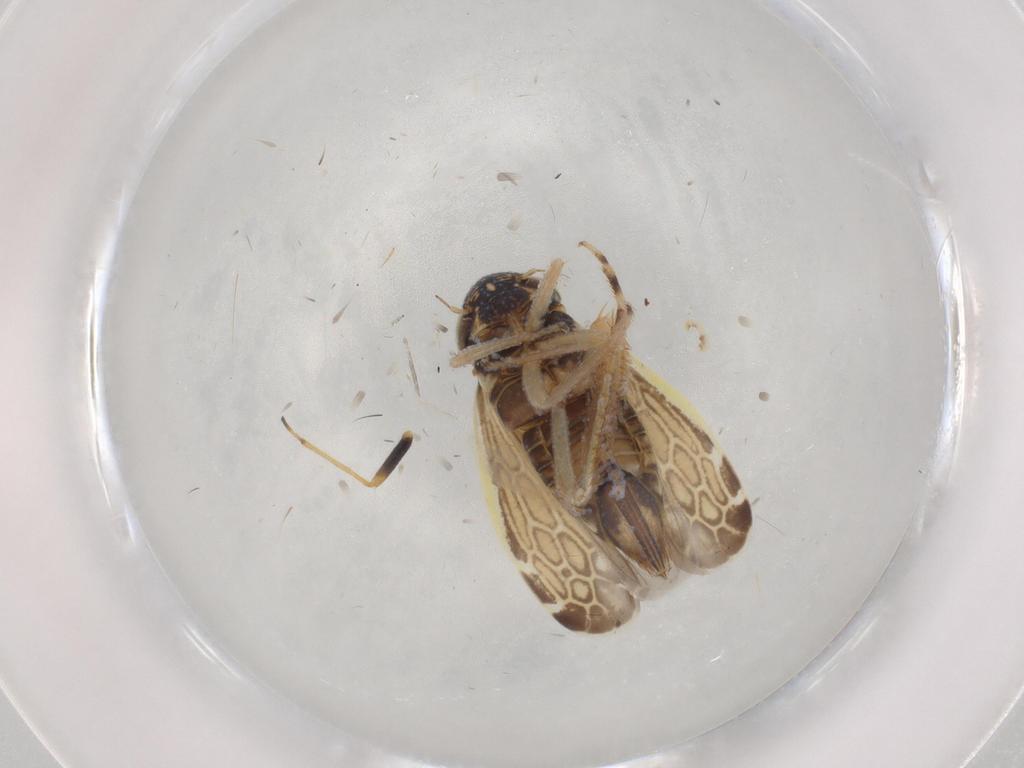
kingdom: Animalia
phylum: Arthropoda
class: Insecta
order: Hemiptera
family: Cicadellidae
